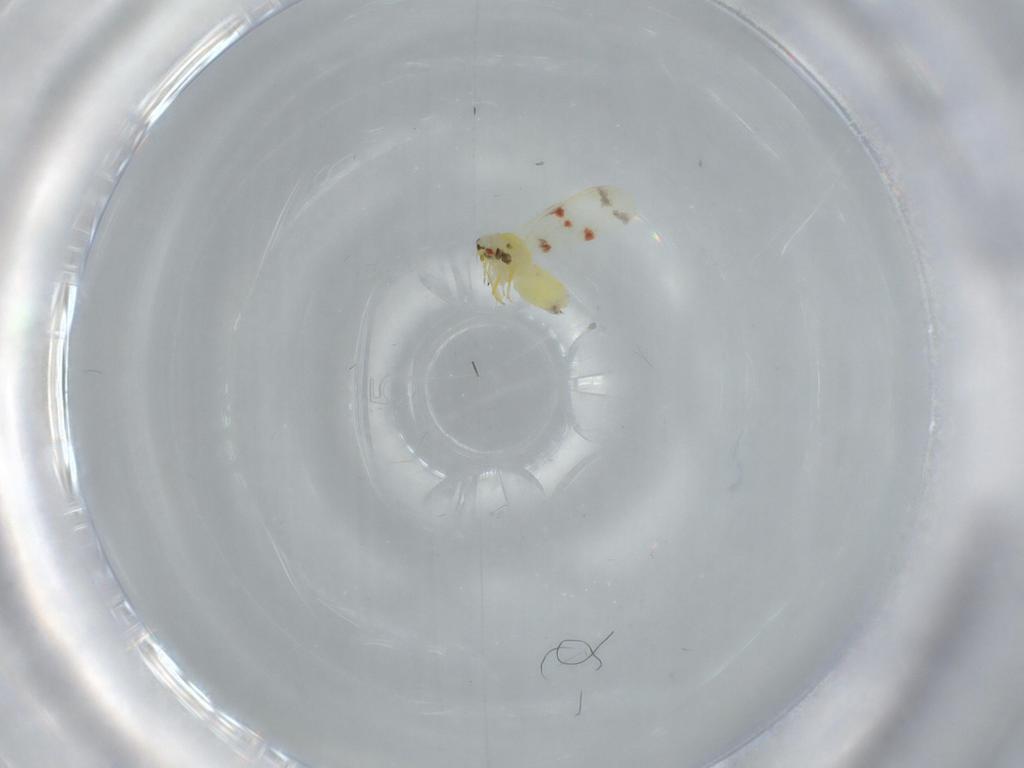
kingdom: Animalia
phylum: Arthropoda
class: Insecta
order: Hemiptera
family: Aleyrodidae
